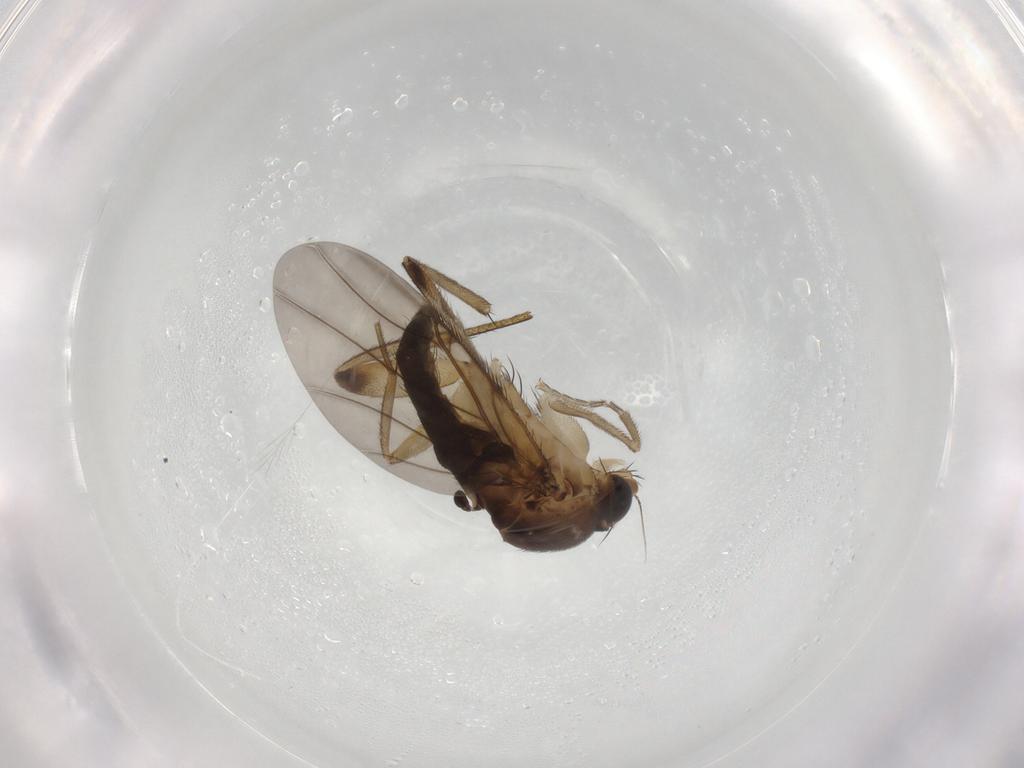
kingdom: Animalia
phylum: Arthropoda
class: Insecta
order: Diptera
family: Phoridae
